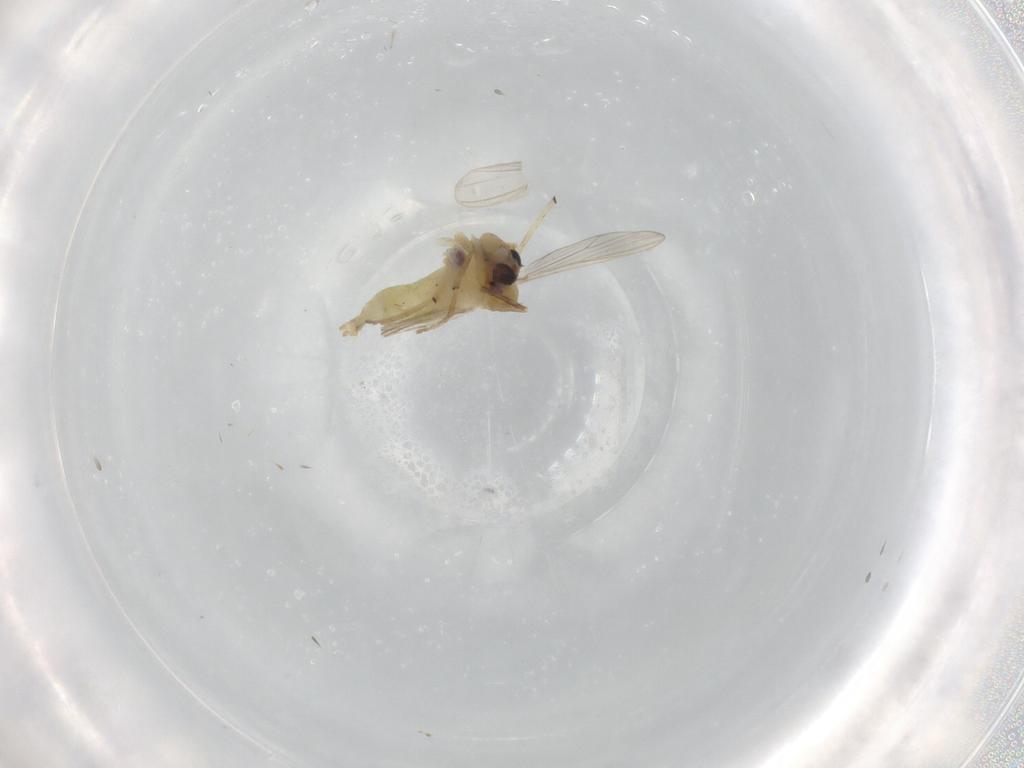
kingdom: Animalia
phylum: Arthropoda
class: Insecta
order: Diptera
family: Chironomidae
